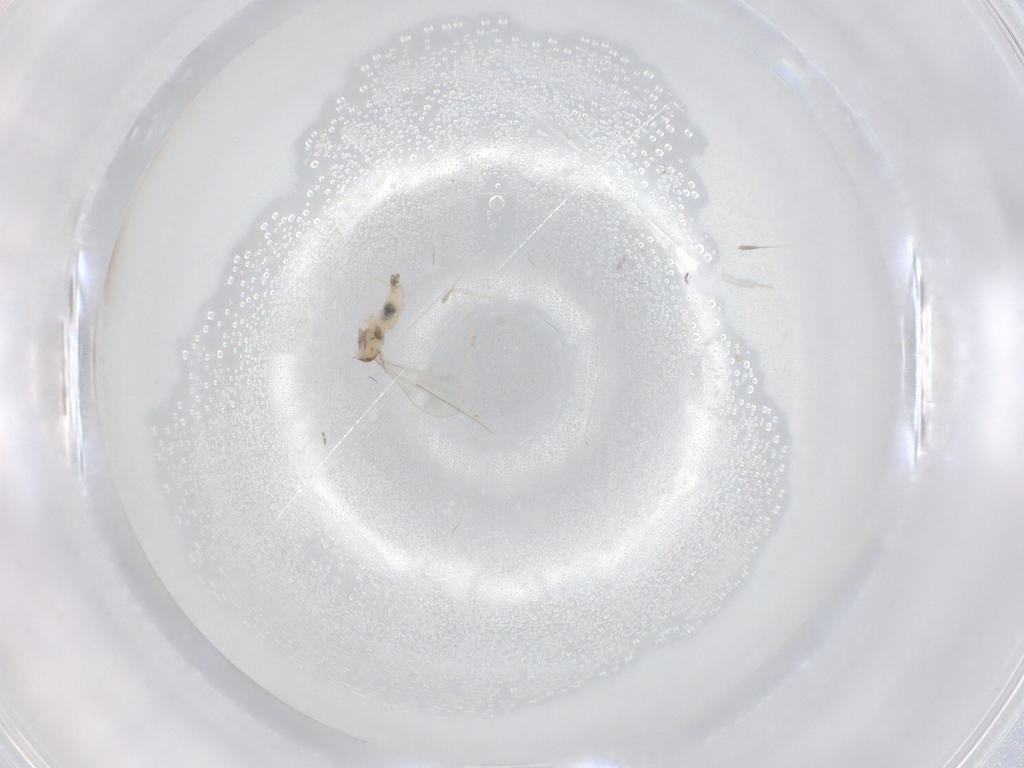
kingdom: Animalia
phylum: Arthropoda
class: Insecta
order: Diptera
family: Cecidomyiidae
